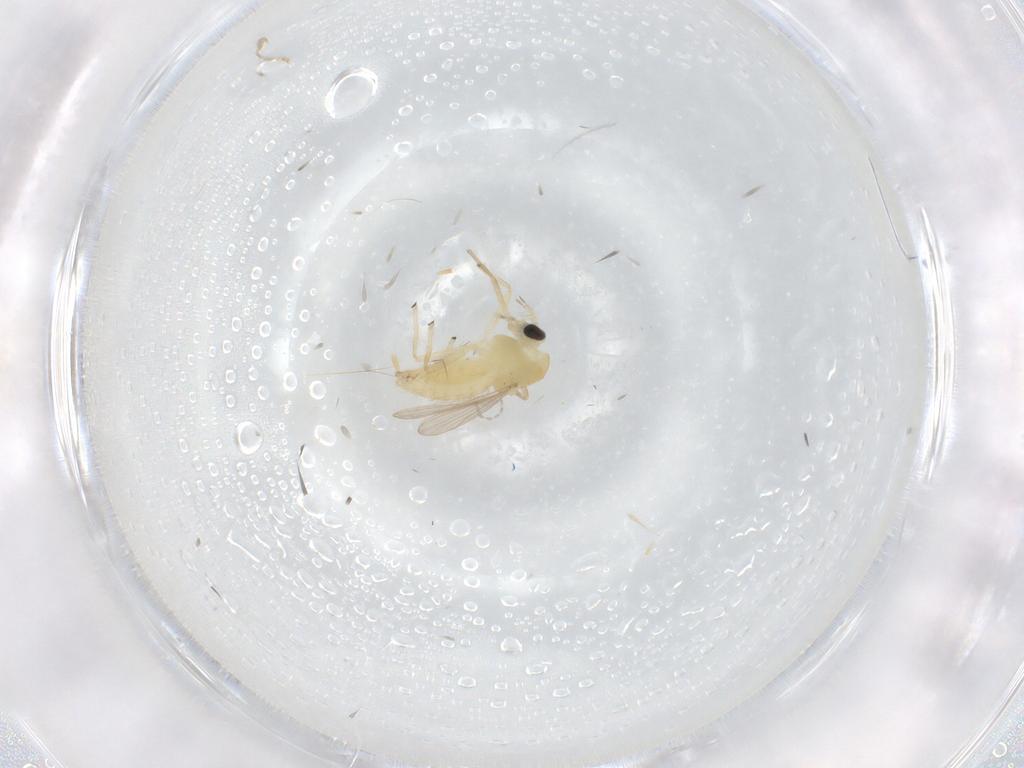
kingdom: Animalia
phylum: Arthropoda
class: Insecta
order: Diptera
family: Chironomidae
